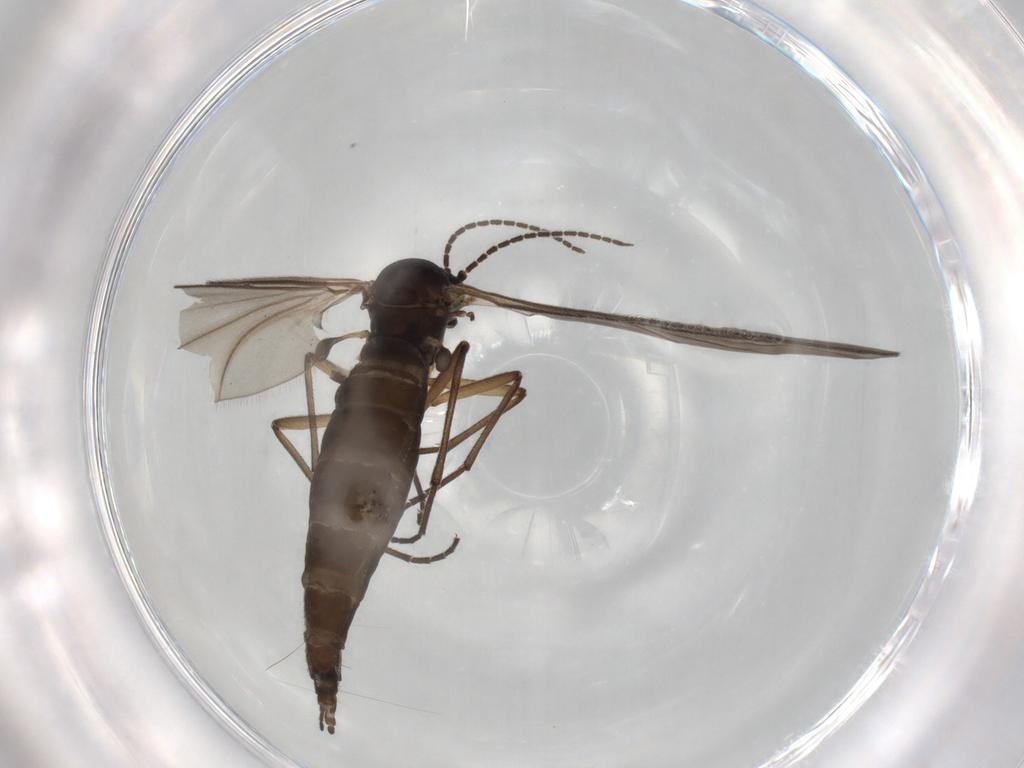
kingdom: Animalia
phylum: Arthropoda
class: Insecta
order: Diptera
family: Sciaridae
